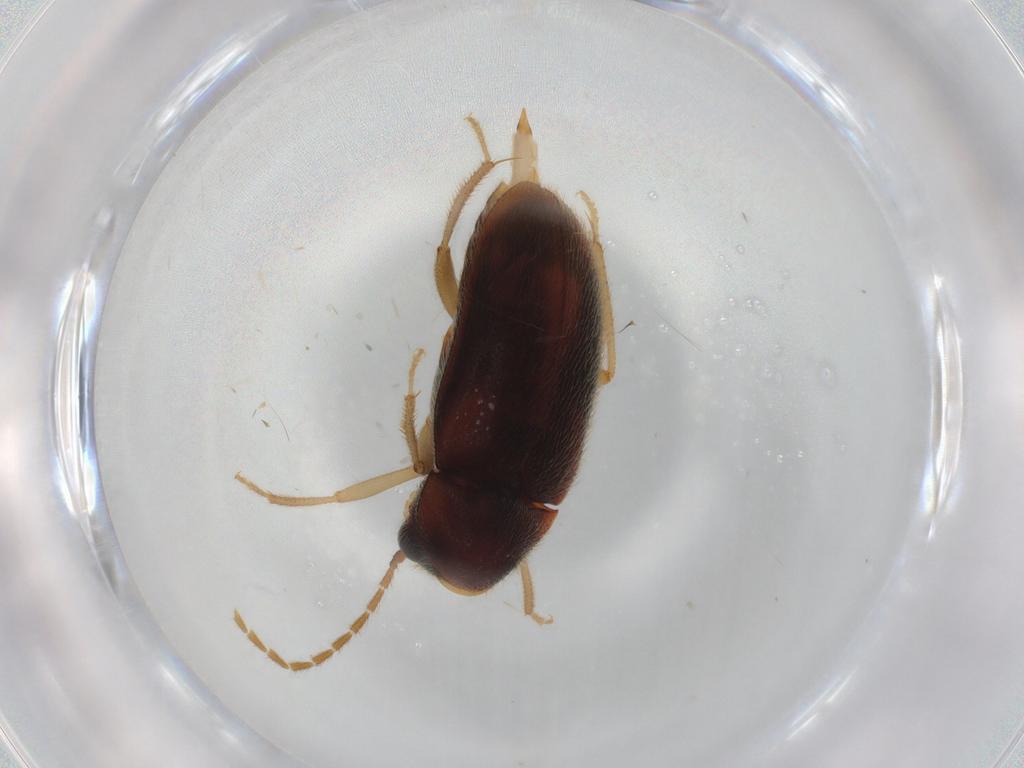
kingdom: Animalia
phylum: Arthropoda
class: Insecta
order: Coleoptera
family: Ptilodactylidae
